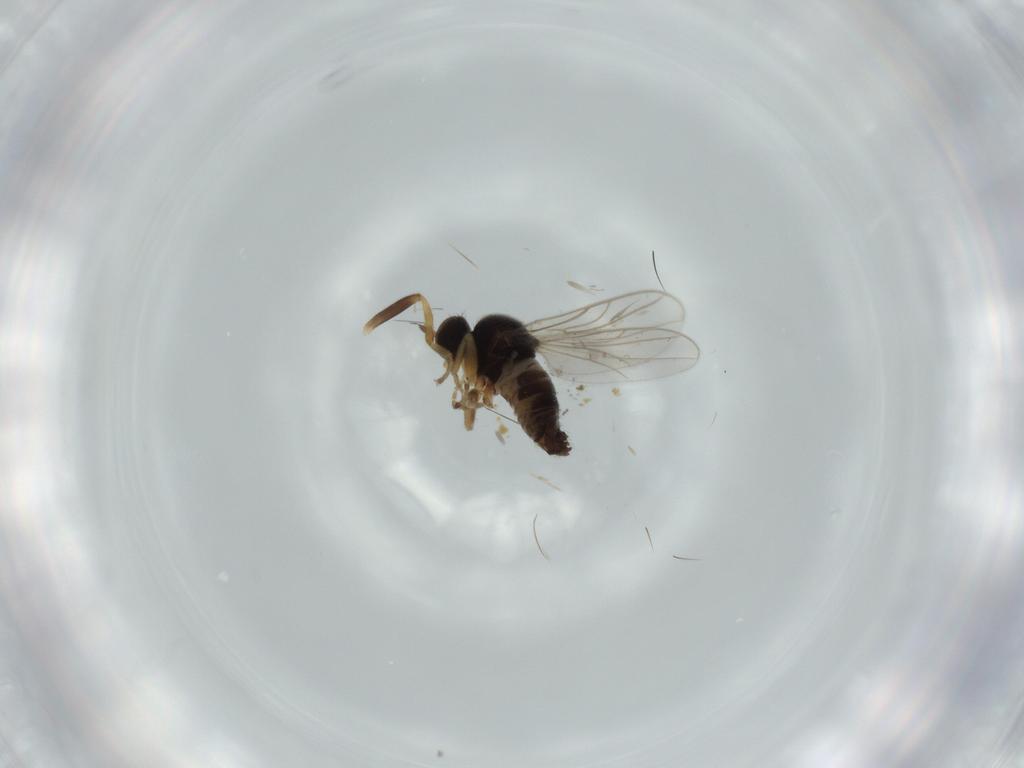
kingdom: Animalia
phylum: Arthropoda
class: Insecta
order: Diptera
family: Hybotidae
